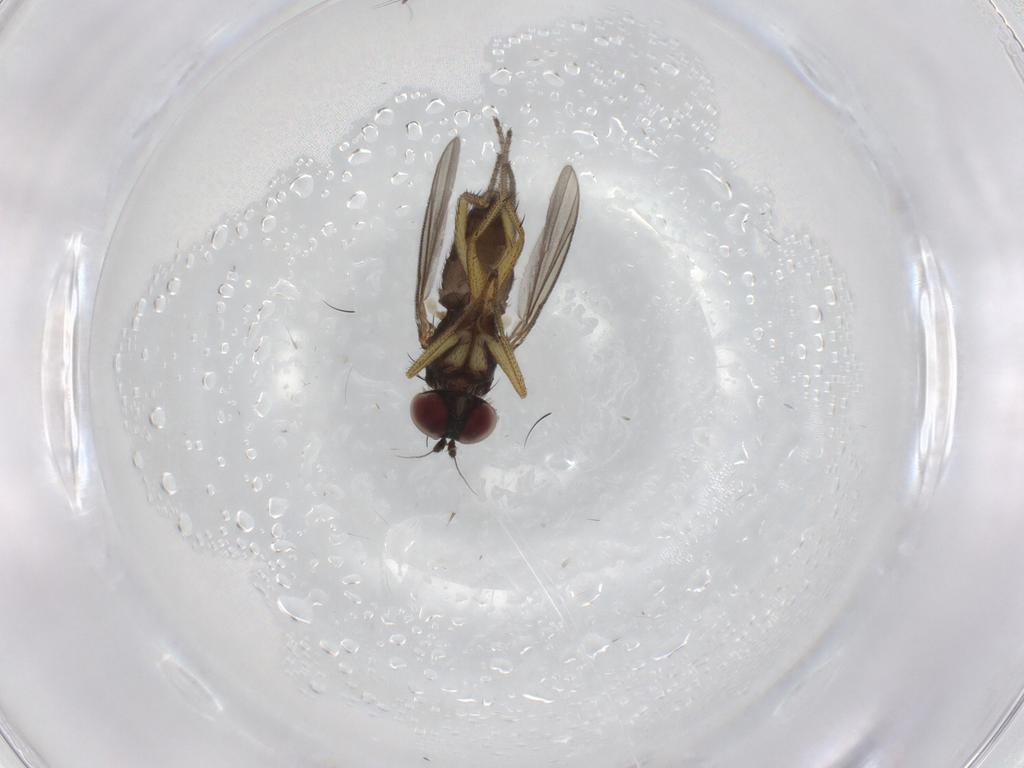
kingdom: Animalia
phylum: Arthropoda
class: Insecta
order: Diptera
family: Dolichopodidae
